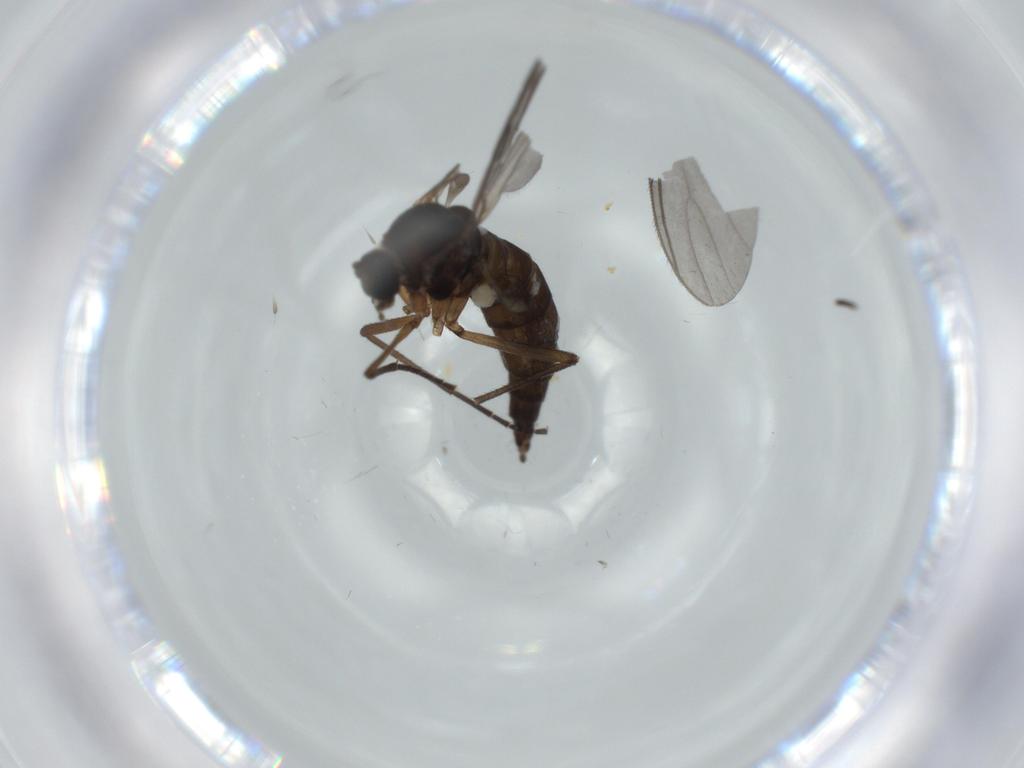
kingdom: Animalia
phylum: Arthropoda
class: Insecta
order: Diptera
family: Sciaridae
